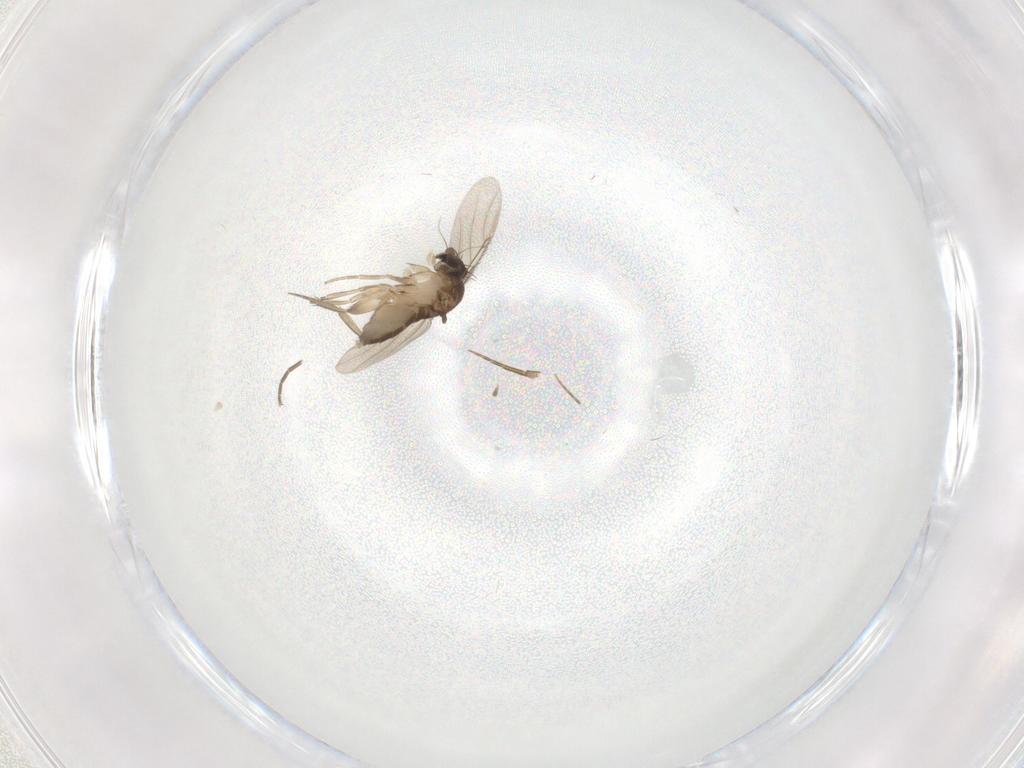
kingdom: Animalia
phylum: Arthropoda
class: Insecta
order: Diptera
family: Phoridae
